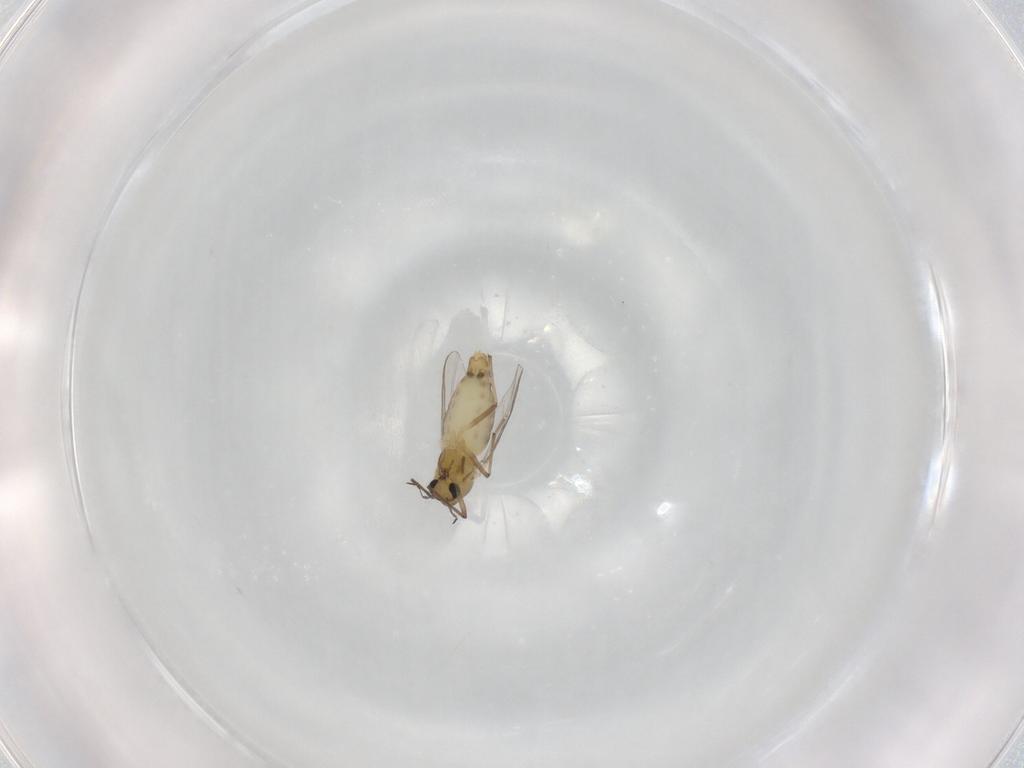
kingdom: Animalia
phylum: Arthropoda
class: Insecta
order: Diptera
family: Chironomidae
